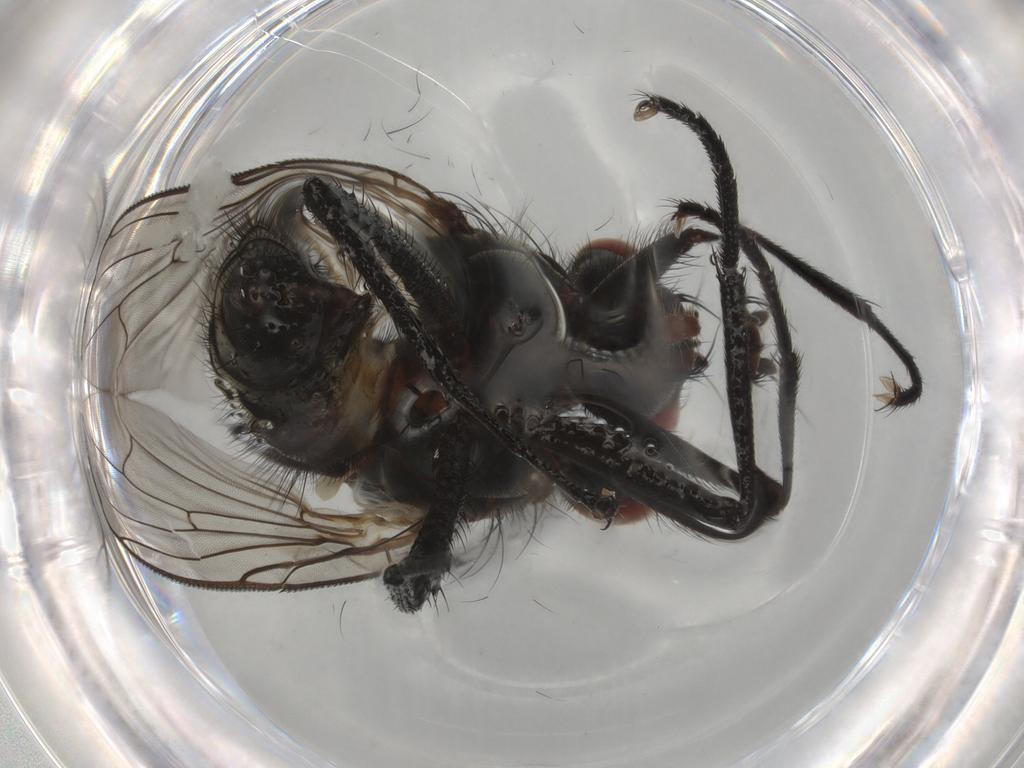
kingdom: Animalia
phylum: Arthropoda
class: Insecta
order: Diptera
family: Anthomyiidae
